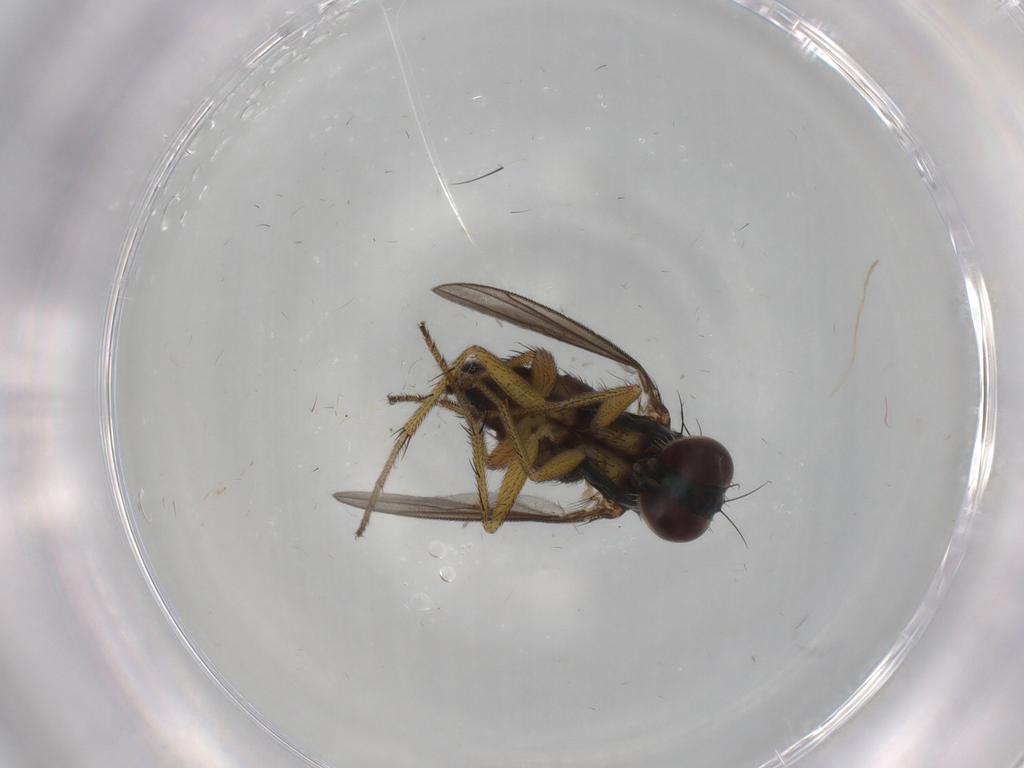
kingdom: Animalia
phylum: Arthropoda
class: Insecta
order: Diptera
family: Dolichopodidae
